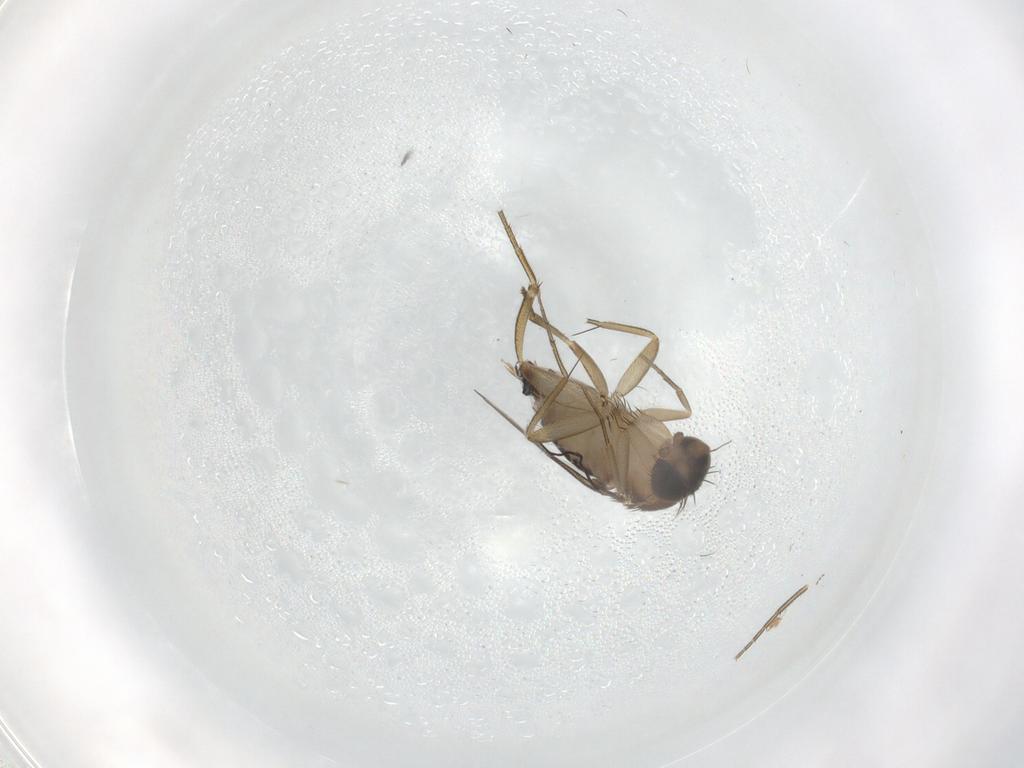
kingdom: Animalia
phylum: Arthropoda
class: Insecta
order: Diptera
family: Phoridae
